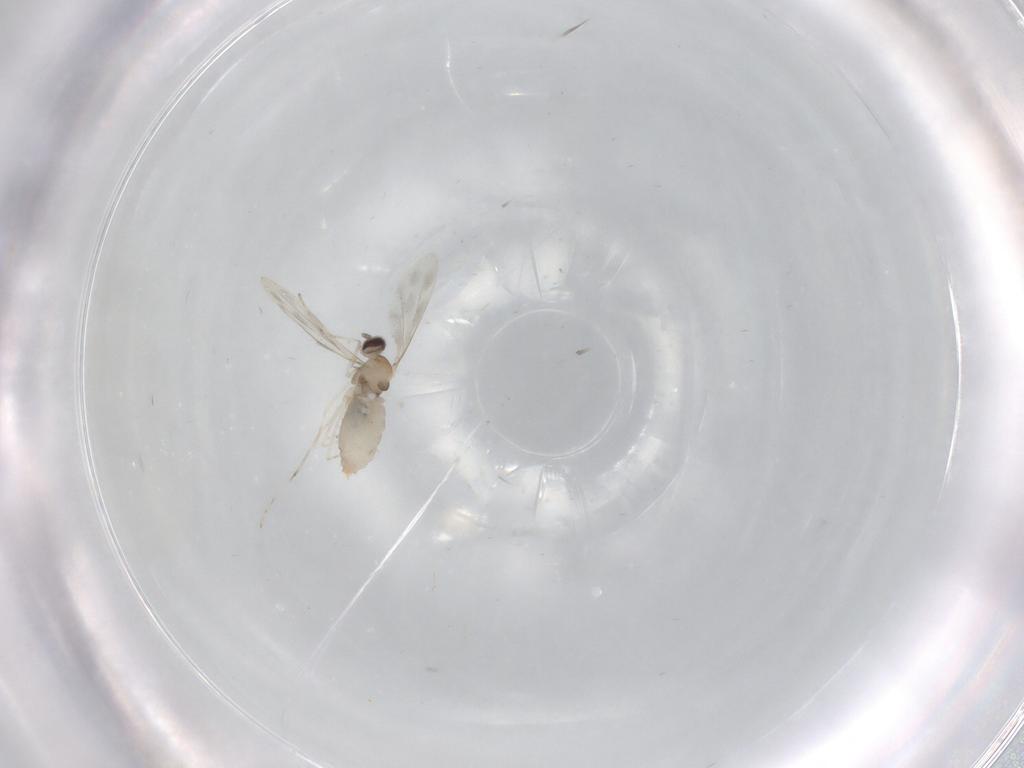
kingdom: Animalia
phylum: Arthropoda
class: Insecta
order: Diptera
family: Cecidomyiidae
